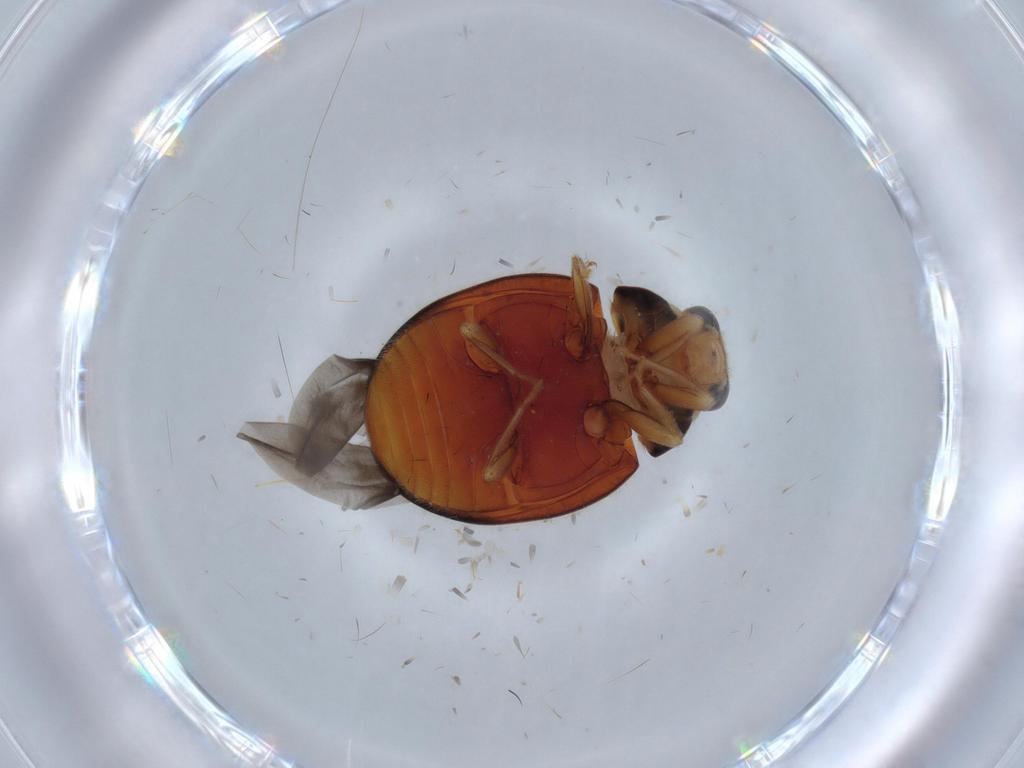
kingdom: Animalia
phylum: Arthropoda
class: Insecta
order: Coleoptera
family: Coccinellidae
